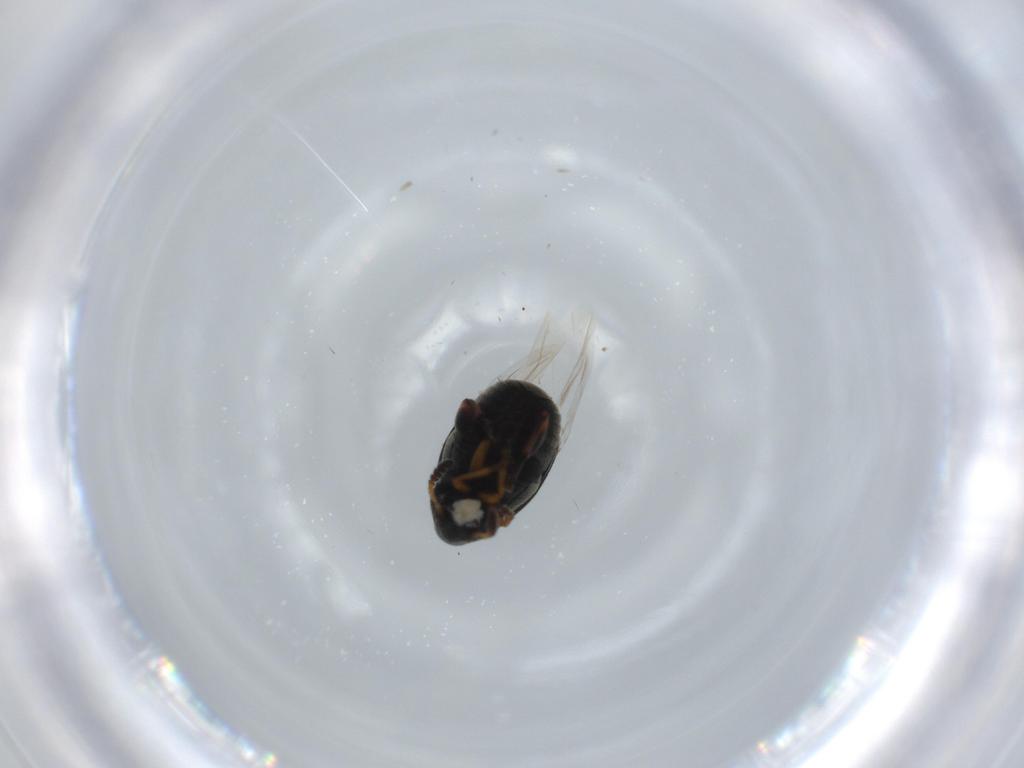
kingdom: Animalia
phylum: Arthropoda
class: Insecta
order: Coleoptera
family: Chrysomelidae
